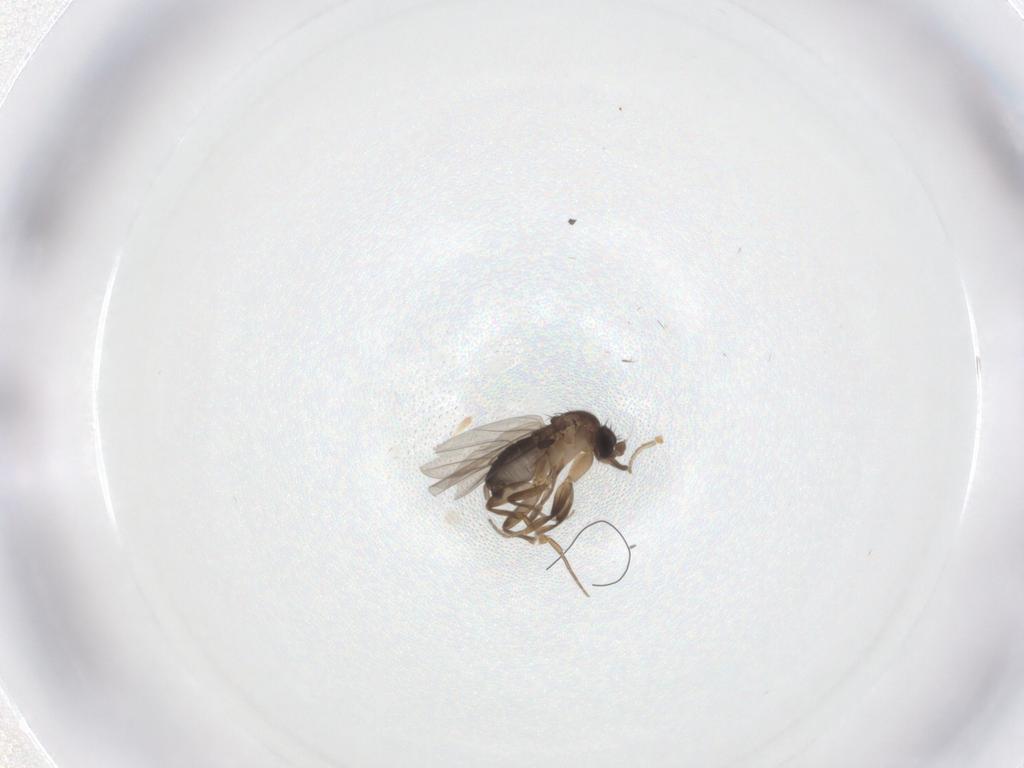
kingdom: Animalia
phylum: Arthropoda
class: Insecta
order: Diptera
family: Phoridae
